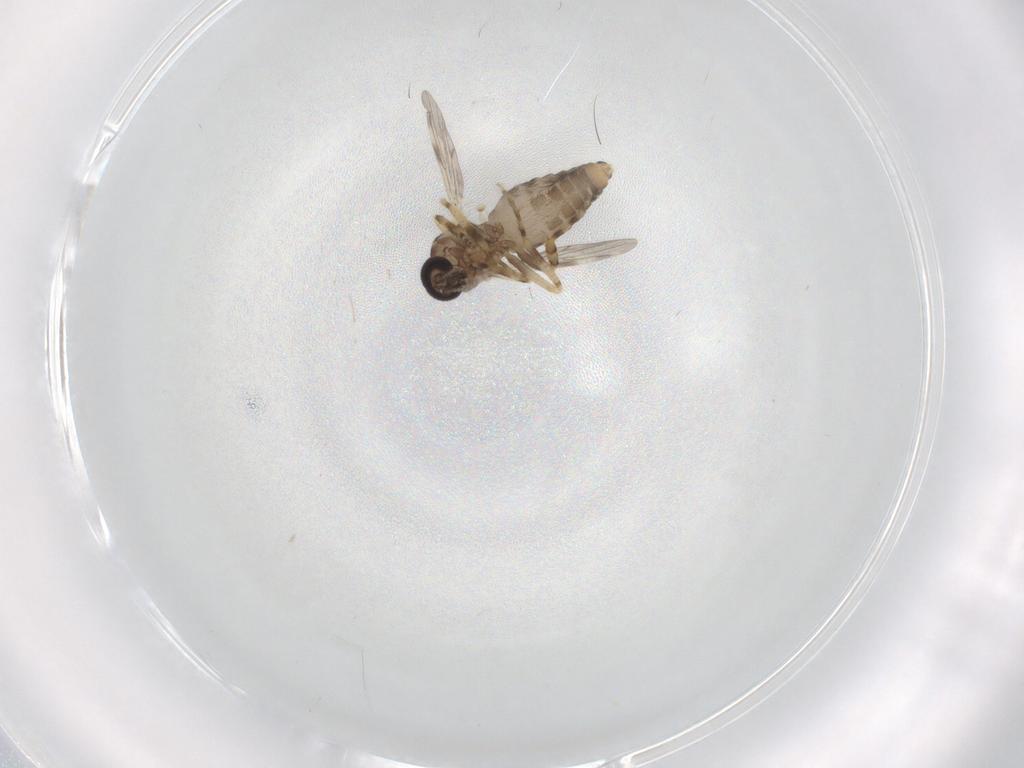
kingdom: Animalia
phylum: Arthropoda
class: Insecta
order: Diptera
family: Ceratopogonidae
